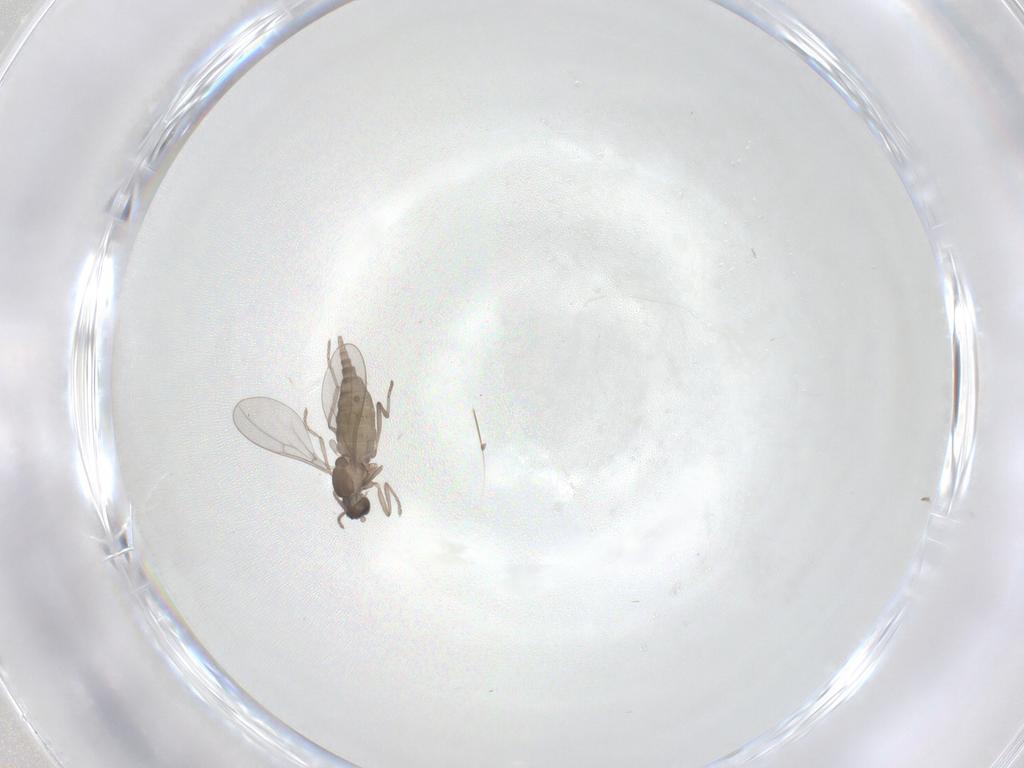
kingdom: Animalia
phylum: Arthropoda
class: Insecta
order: Diptera
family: Cecidomyiidae
